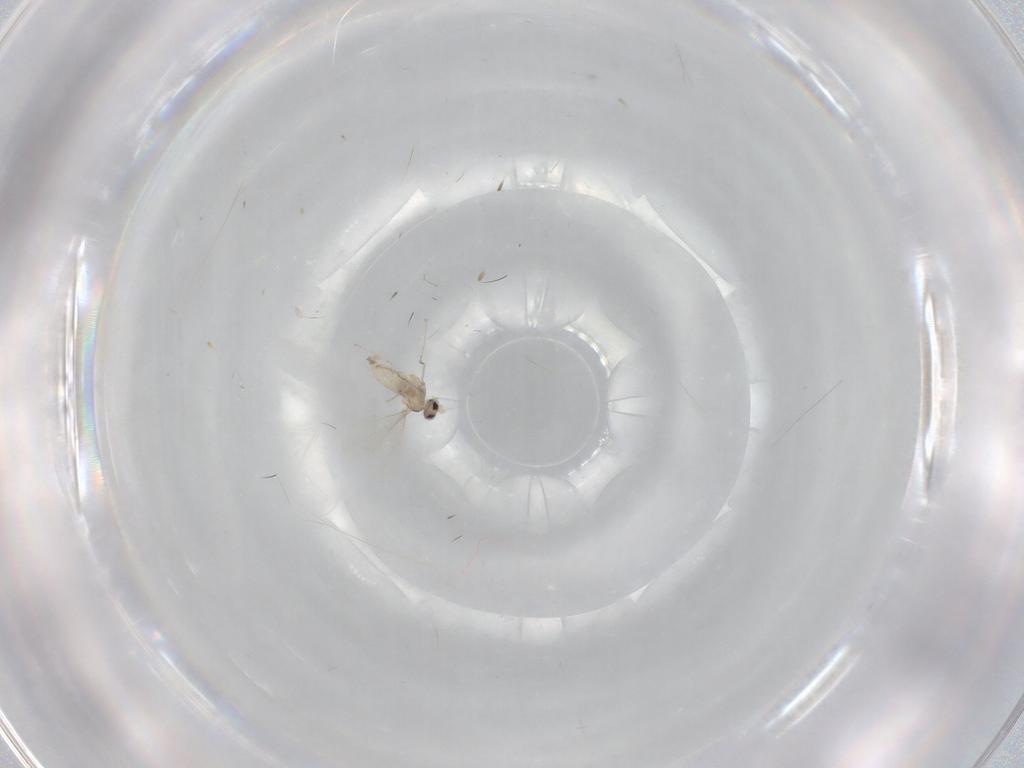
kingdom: Animalia
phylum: Arthropoda
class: Insecta
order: Diptera
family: Cecidomyiidae
